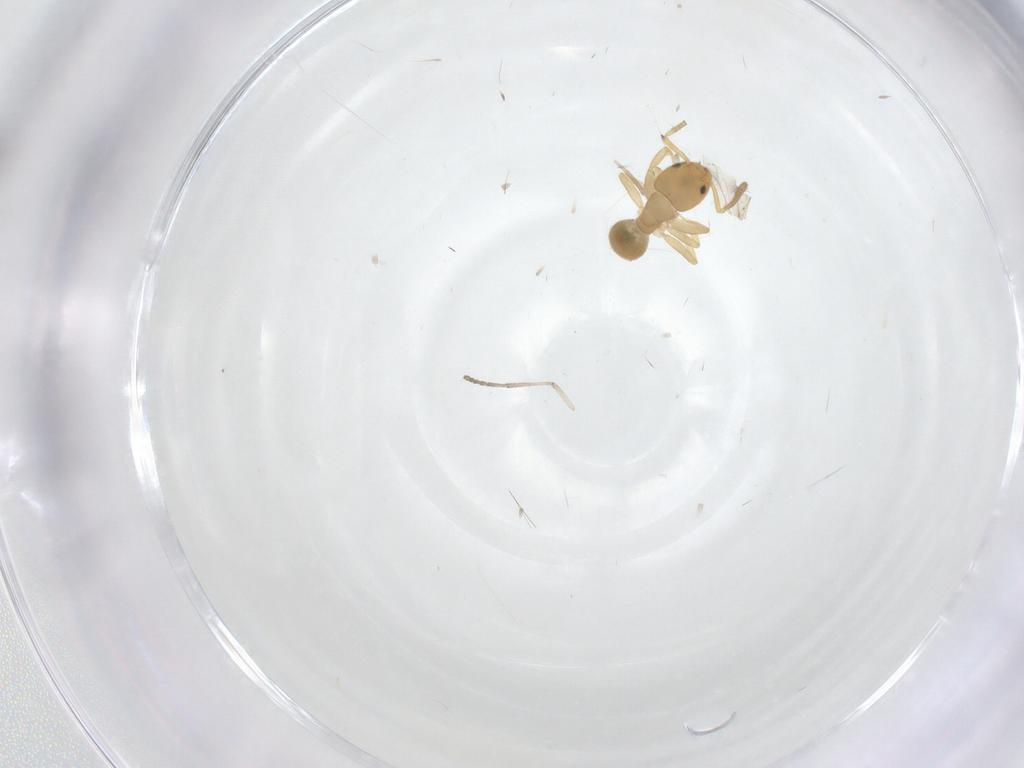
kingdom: Animalia
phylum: Arthropoda
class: Insecta
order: Hymenoptera
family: Formicidae
